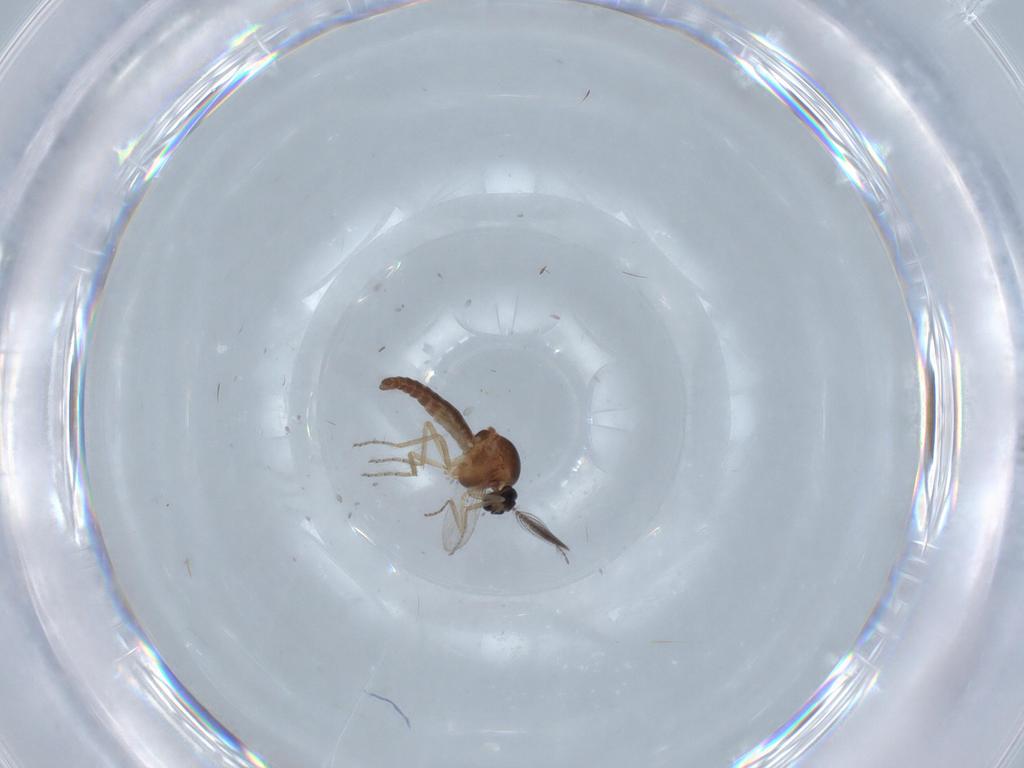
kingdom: Animalia
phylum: Arthropoda
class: Insecta
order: Diptera
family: Ceratopogonidae
